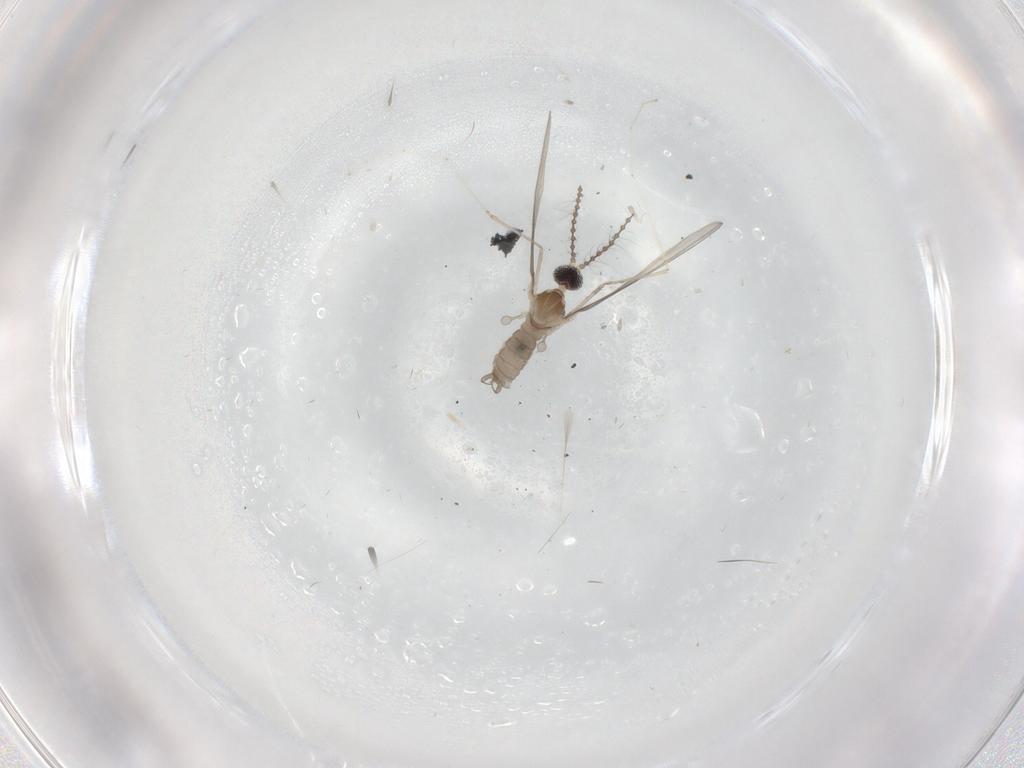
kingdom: Animalia
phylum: Arthropoda
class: Insecta
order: Diptera
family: Cecidomyiidae
